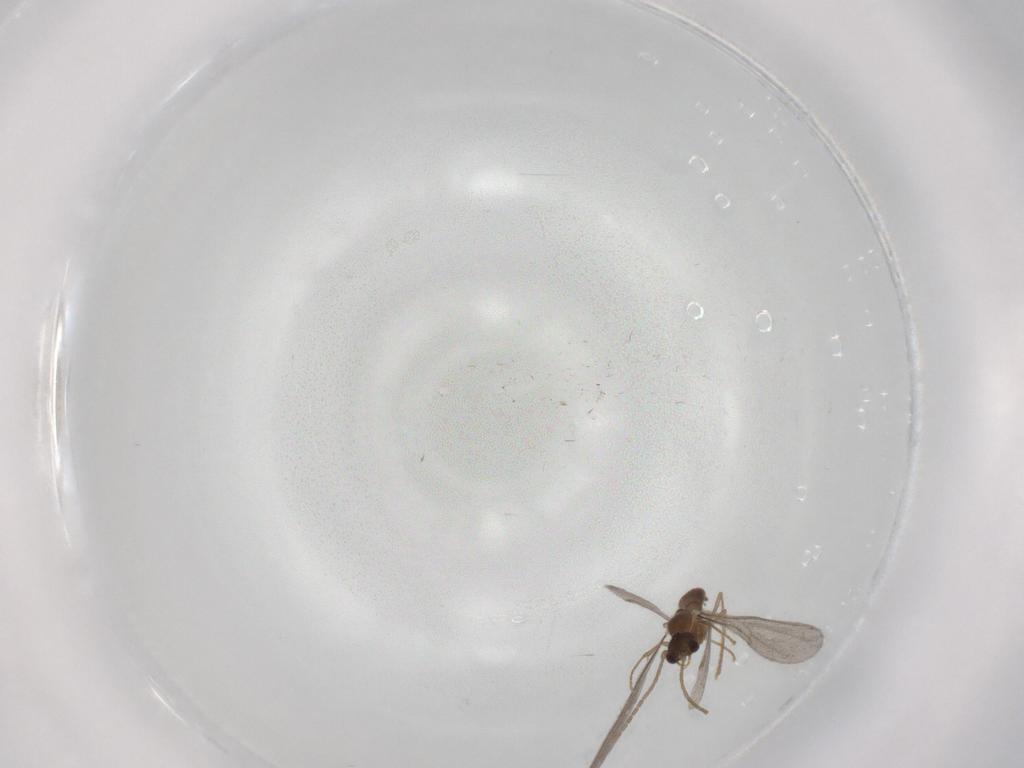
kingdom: Animalia
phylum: Arthropoda
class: Insecta
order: Hymenoptera
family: Formicidae
